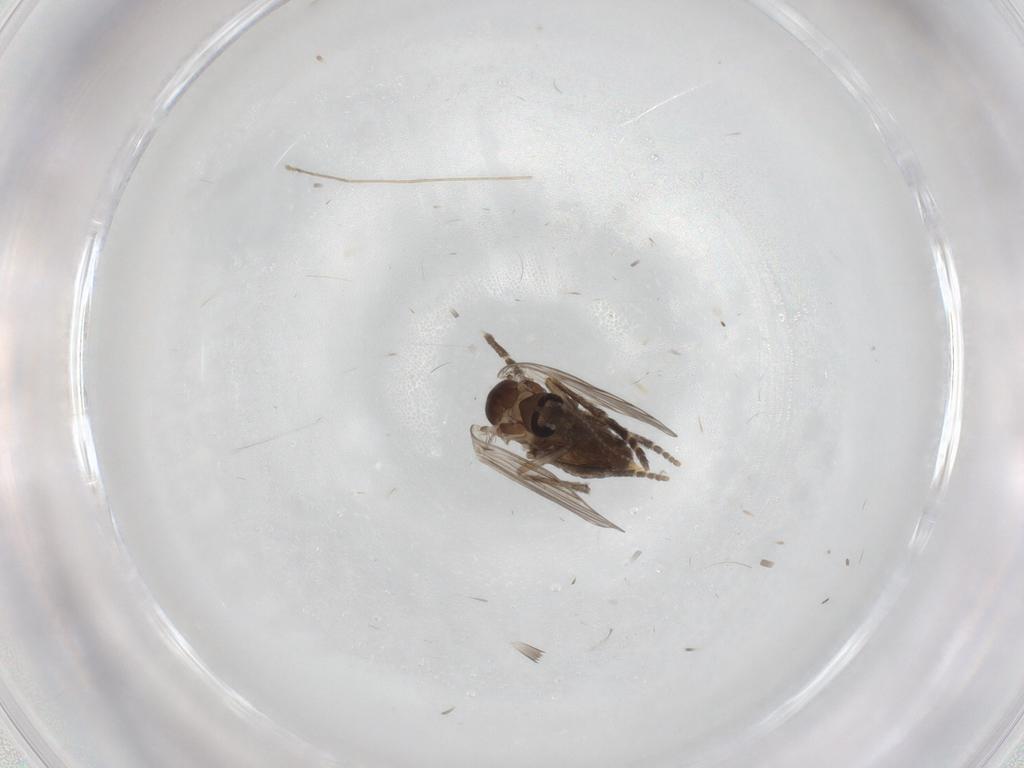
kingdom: Animalia
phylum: Arthropoda
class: Insecta
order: Diptera
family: Psychodidae
